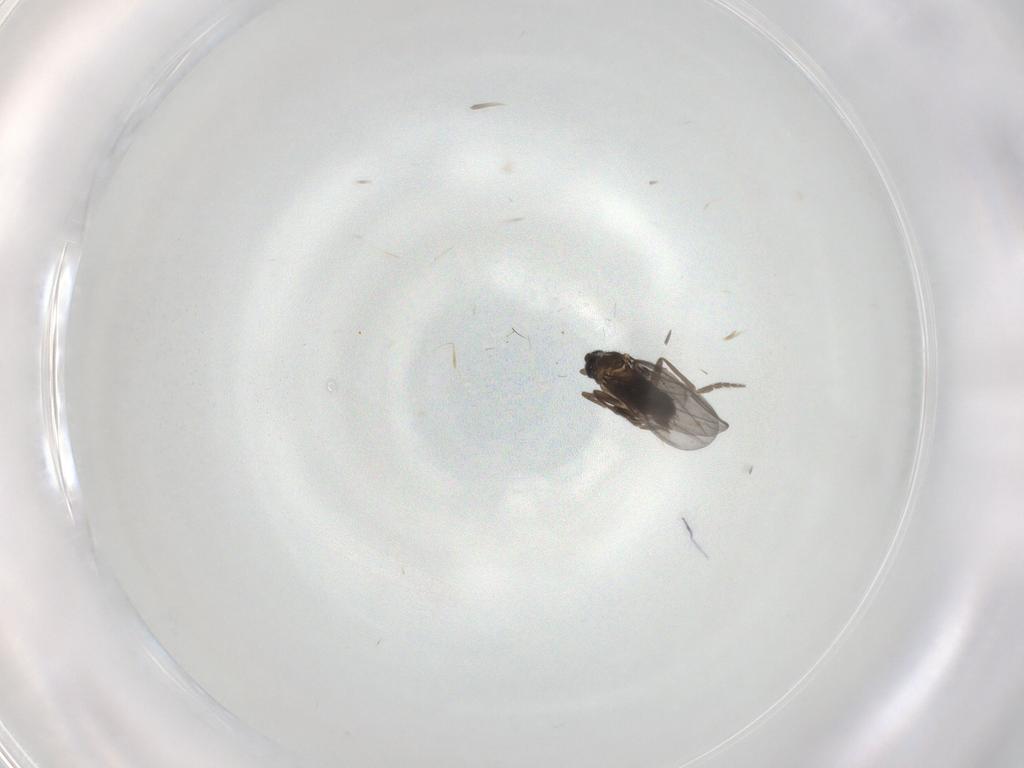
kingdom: Animalia
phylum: Arthropoda
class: Insecta
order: Diptera
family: Phoridae
